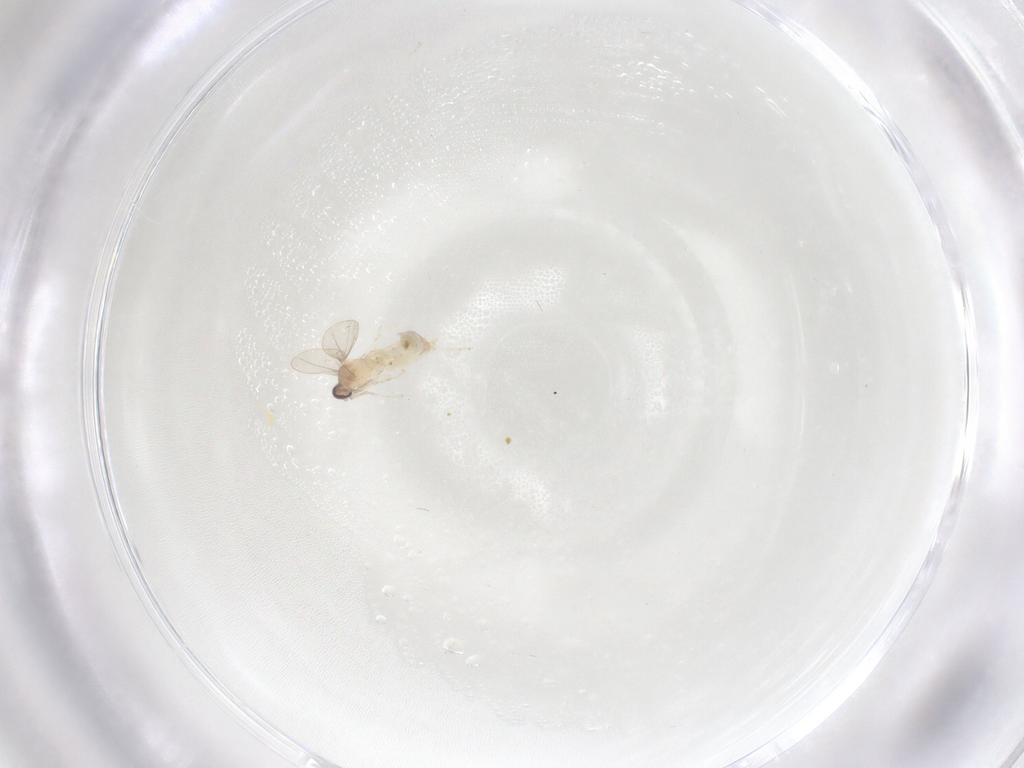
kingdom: Animalia
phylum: Arthropoda
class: Insecta
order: Diptera
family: Cecidomyiidae
